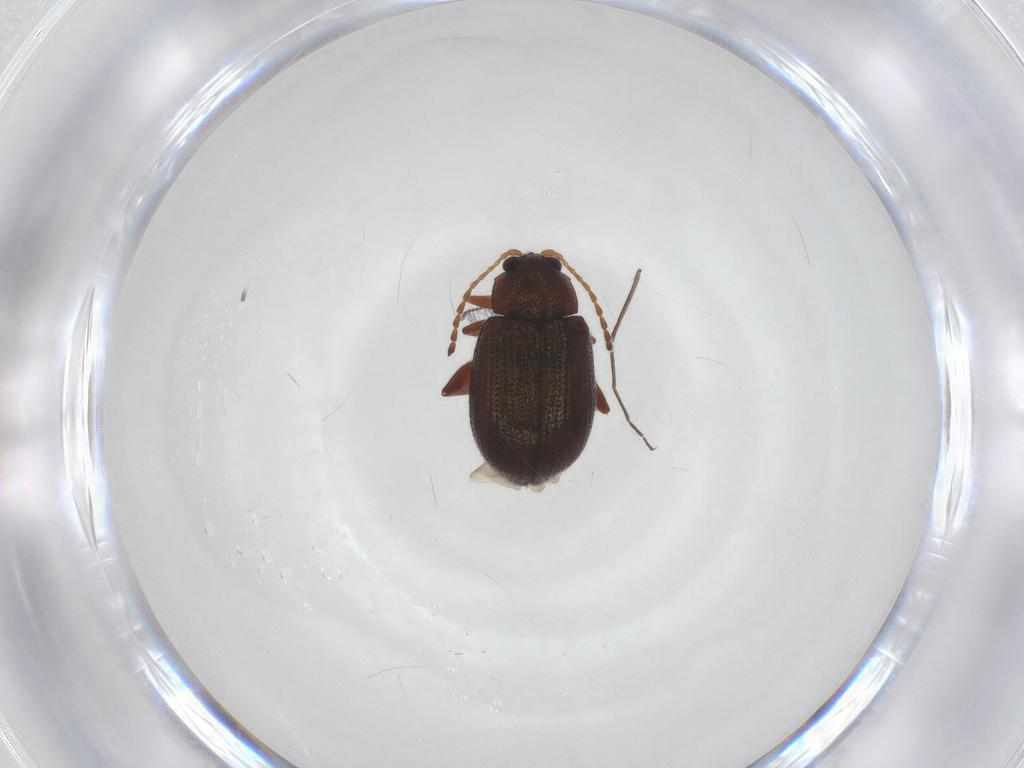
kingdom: Animalia
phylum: Arthropoda
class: Insecta
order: Coleoptera
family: Chrysomelidae
